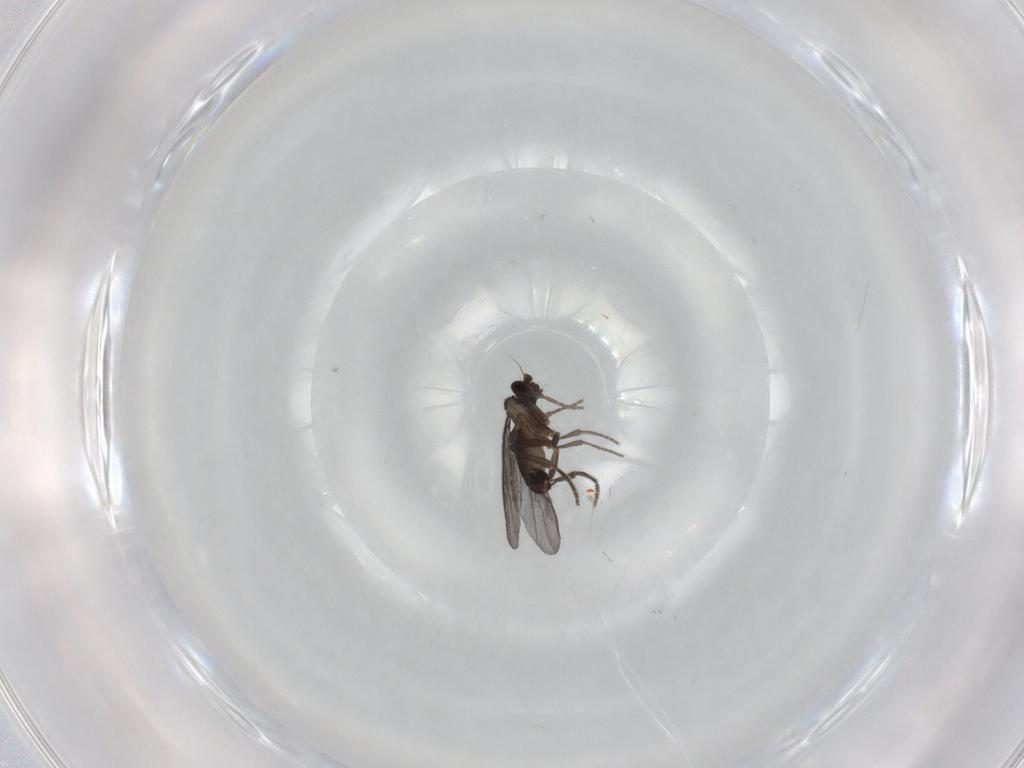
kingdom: Animalia
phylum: Arthropoda
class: Insecta
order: Diptera
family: Phoridae
